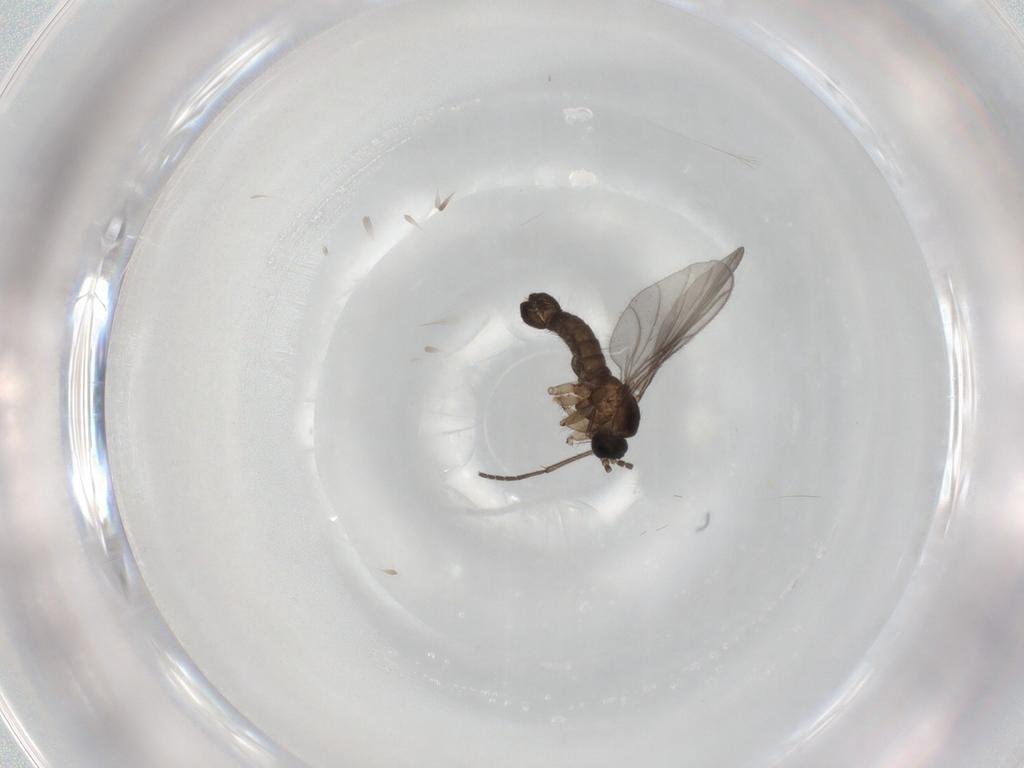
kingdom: Animalia
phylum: Arthropoda
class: Insecta
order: Diptera
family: Sciaridae
